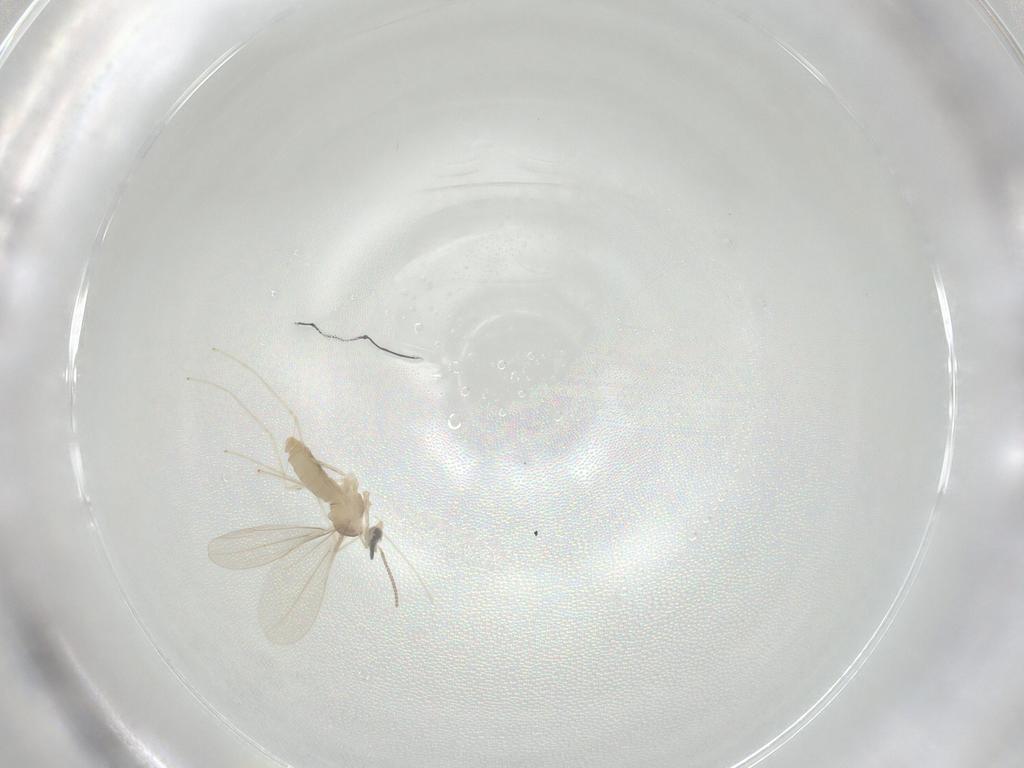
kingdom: Animalia
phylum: Arthropoda
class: Insecta
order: Diptera
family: Cecidomyiidae
